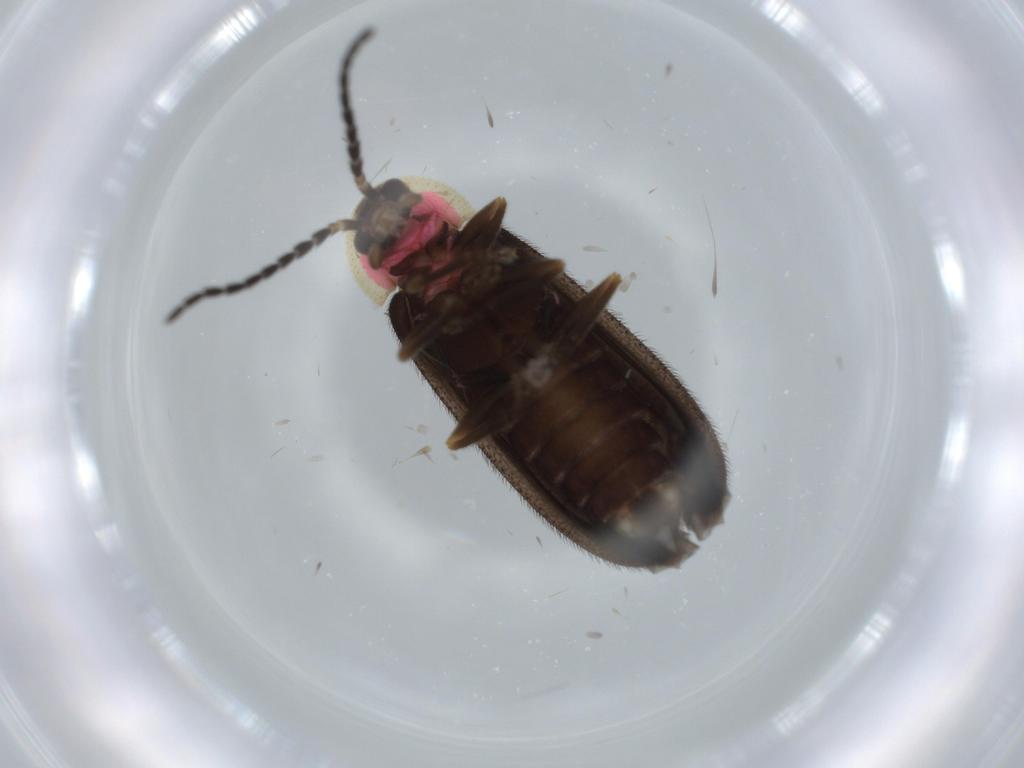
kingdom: Animalia
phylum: Arthropoda
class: Insecta
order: Coleoptera
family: Lampyridae
